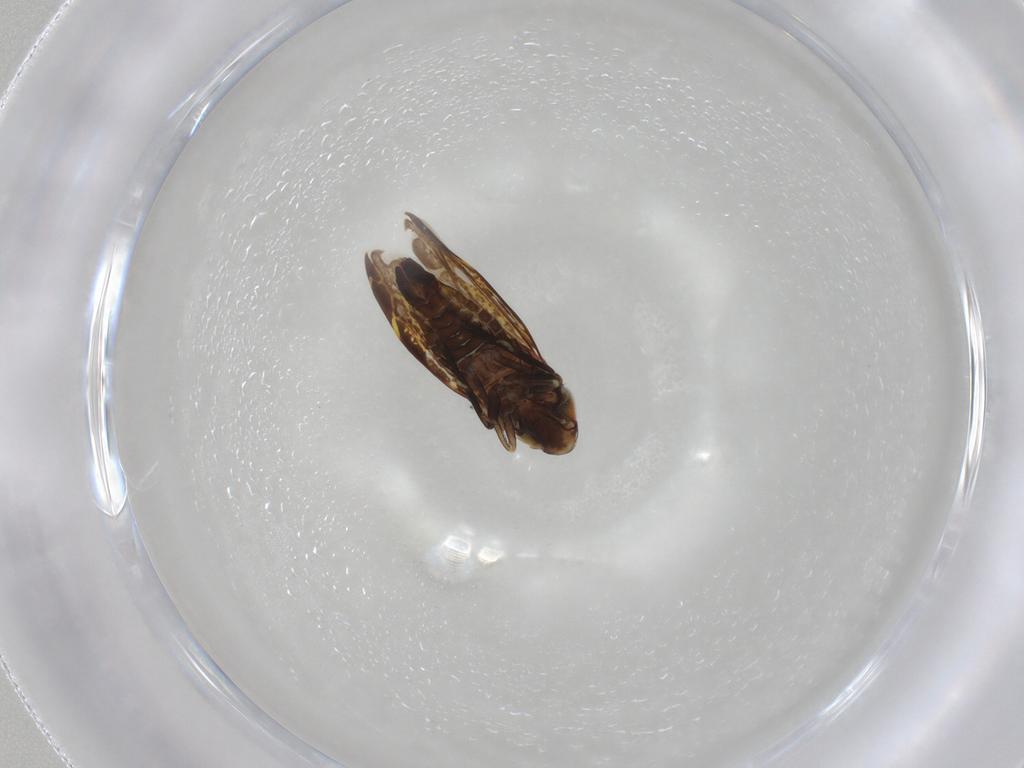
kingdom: Animalia
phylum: Arthropoda
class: Insecta
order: Hemiptera
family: Cicadellidae
